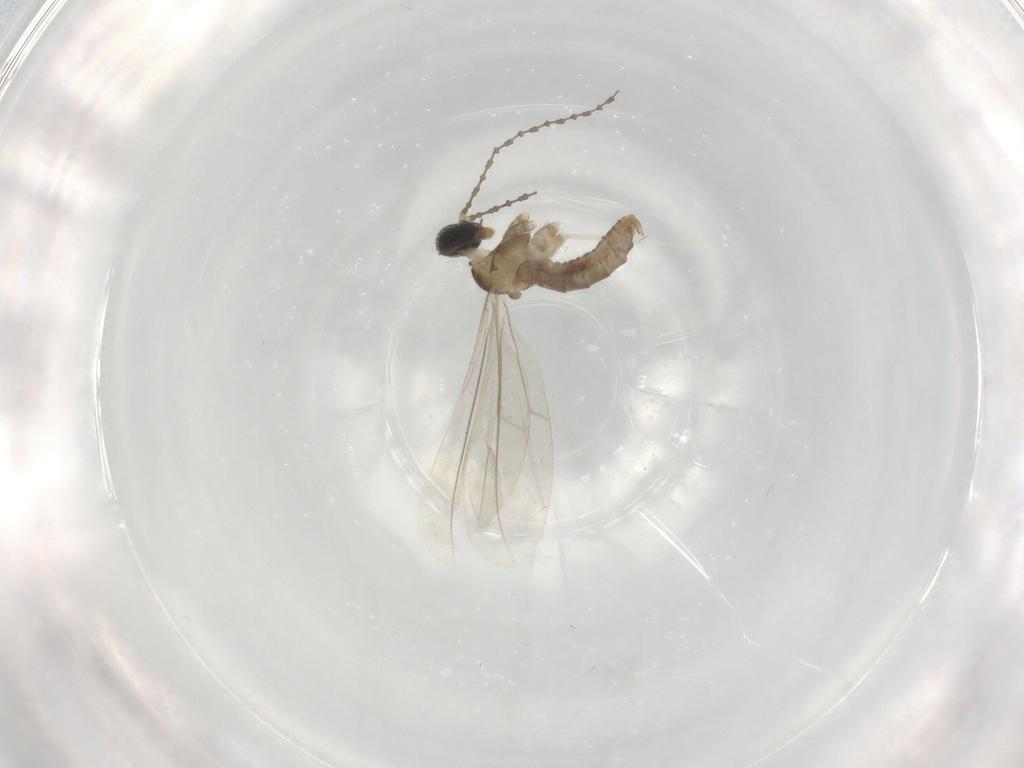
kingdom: Animalia
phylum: Arthropoda
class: Insecta
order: Diptera
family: Cecidomyiidae
